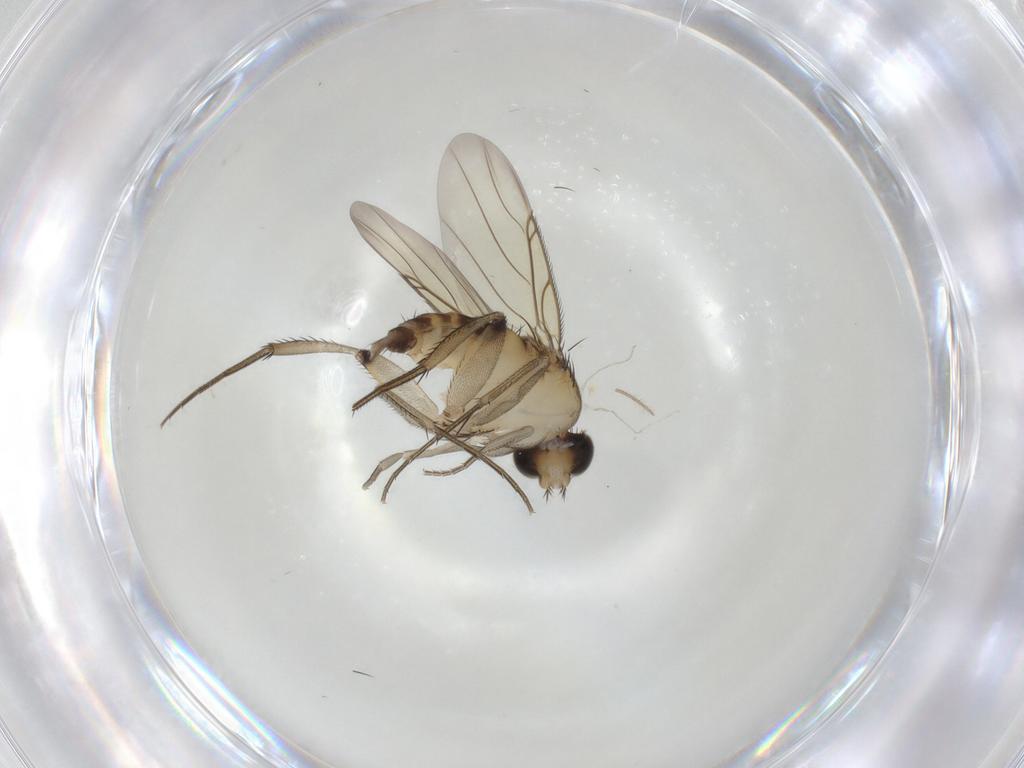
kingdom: Animalia
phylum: Arthropoda
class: Insecta
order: Diptera
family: Phoridae
